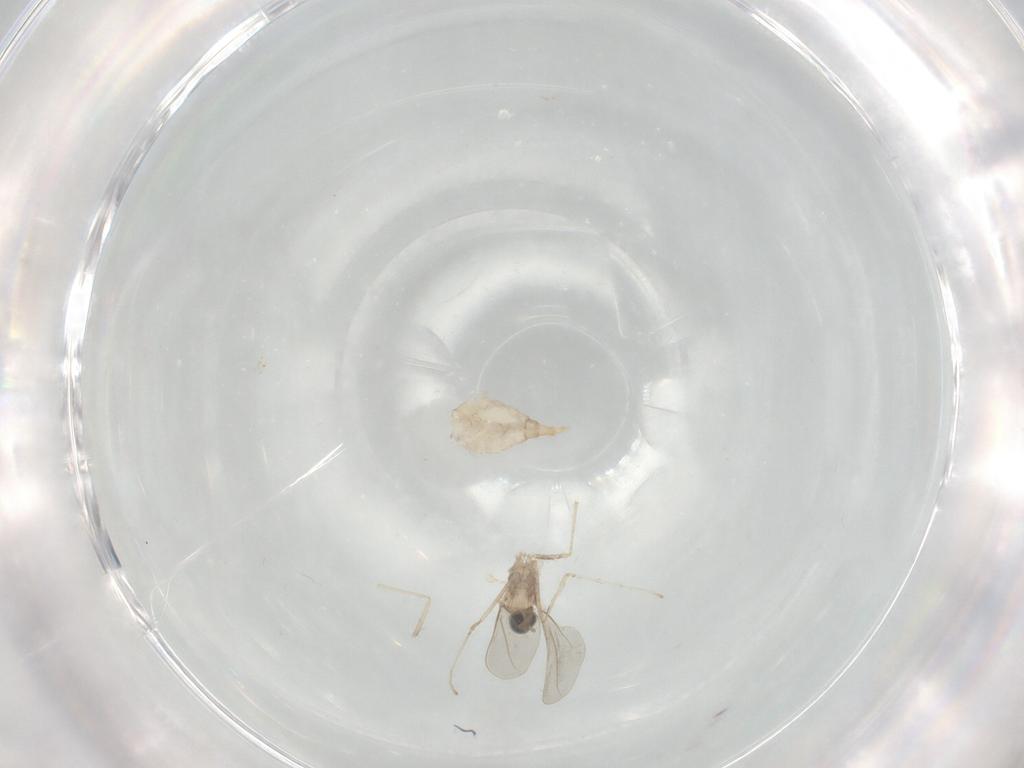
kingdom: Animalia
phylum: Arthropoda
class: Insecta
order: Diptera
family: Cecidomyiidae
